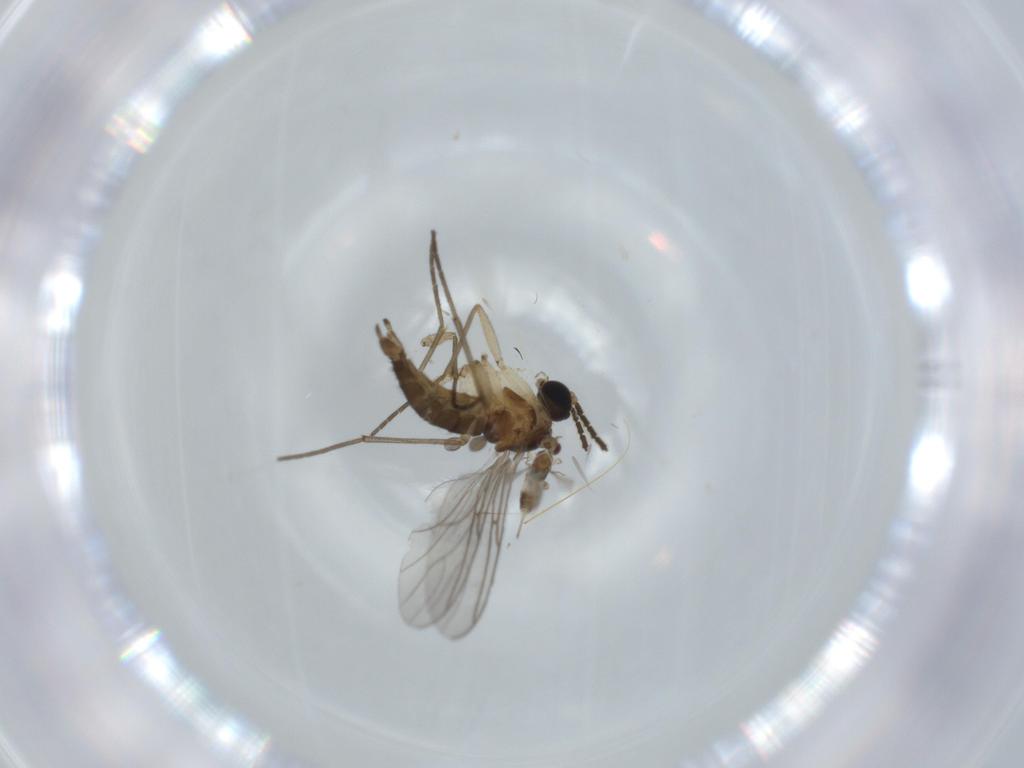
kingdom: Animalia
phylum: Arthropoda
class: Insecta
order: Diptera
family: Sciaridae
